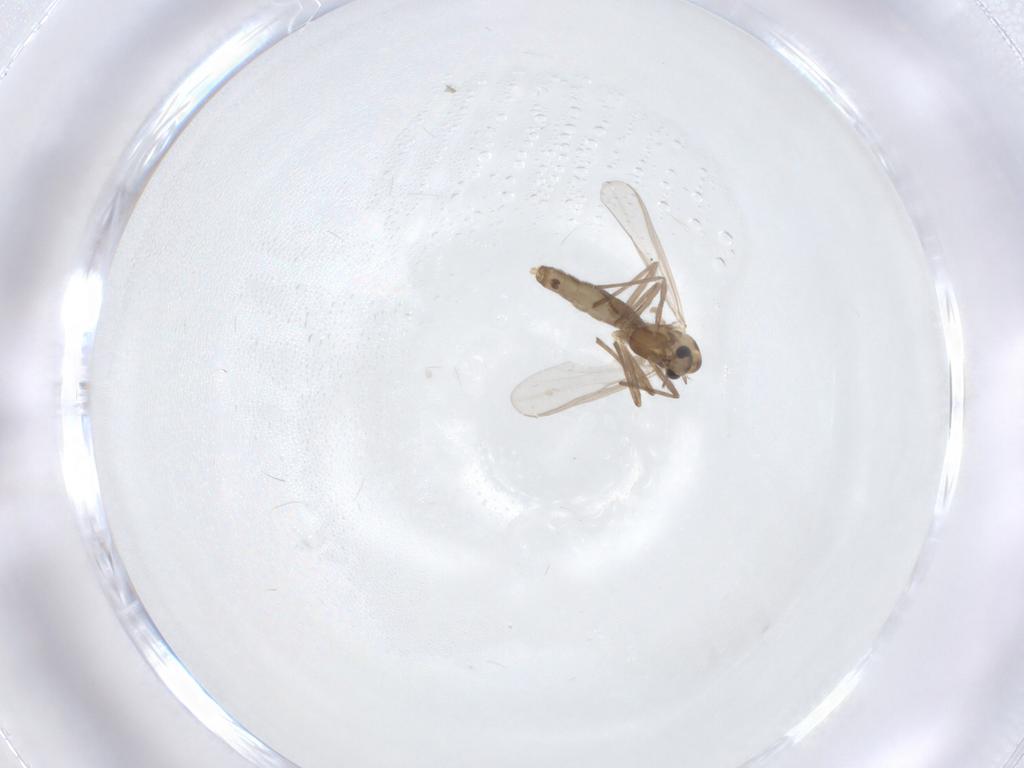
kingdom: Animalia
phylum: Arthropoda
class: Insecta
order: Diptera
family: Chironomidae
